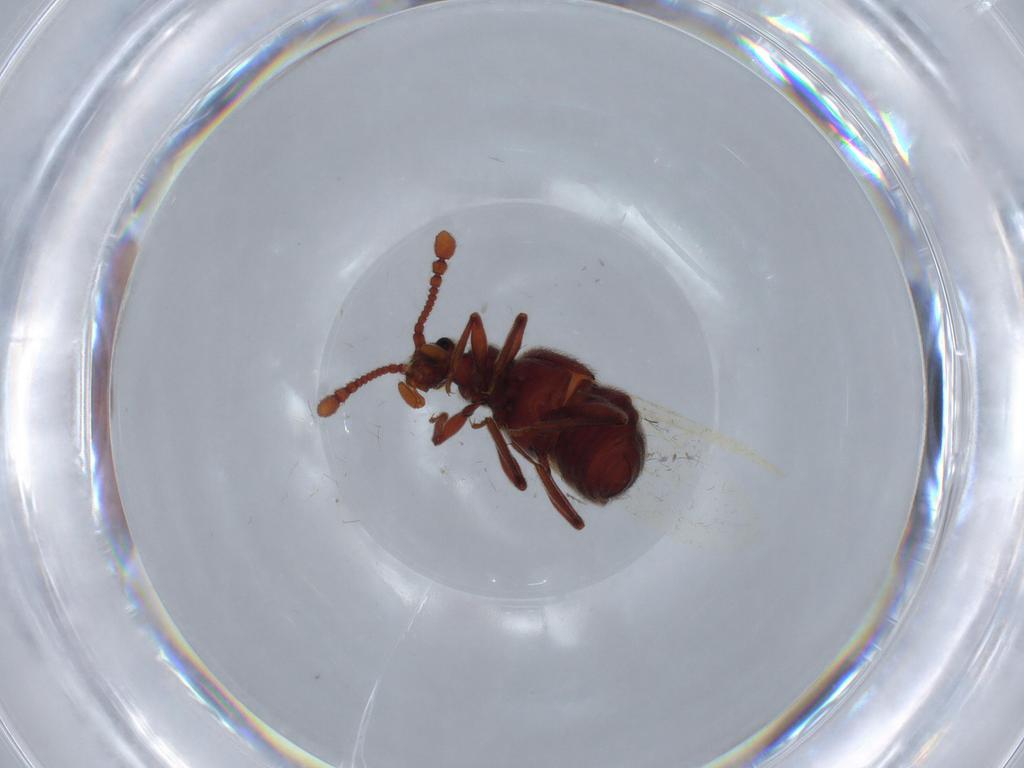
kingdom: Animalia
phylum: Arthropoda
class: Insecta
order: Coleoptera
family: Staphylinidae
